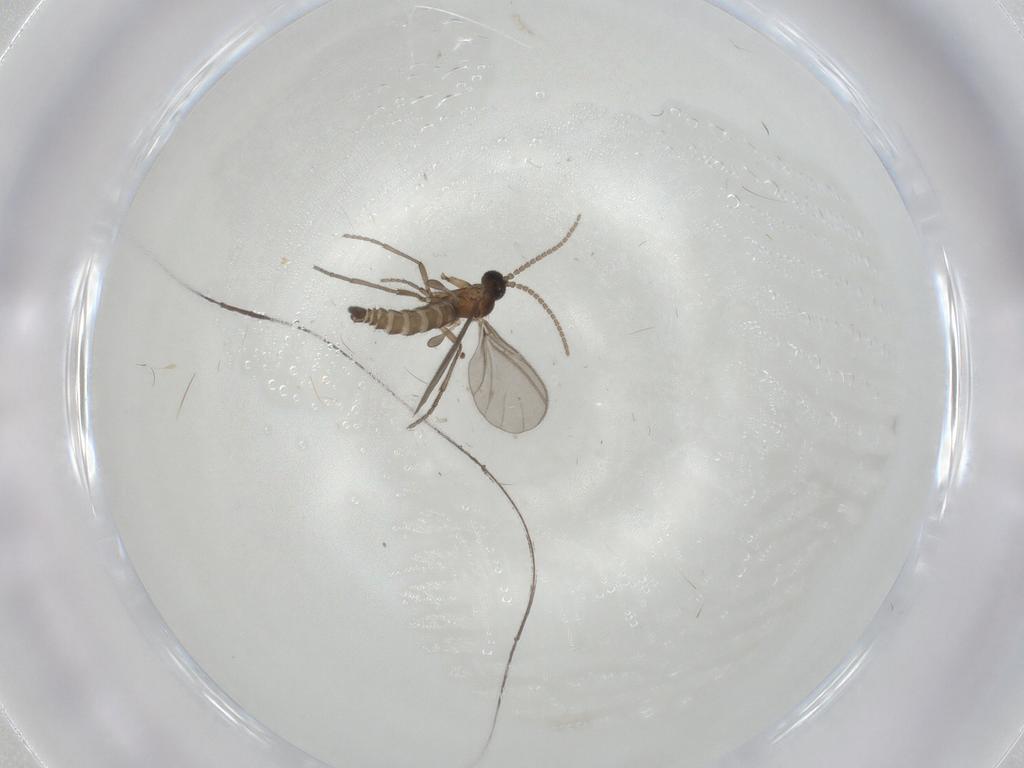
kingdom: Animalia
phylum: Arthropoda
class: Insecta
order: Diptera
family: Sciaridae
